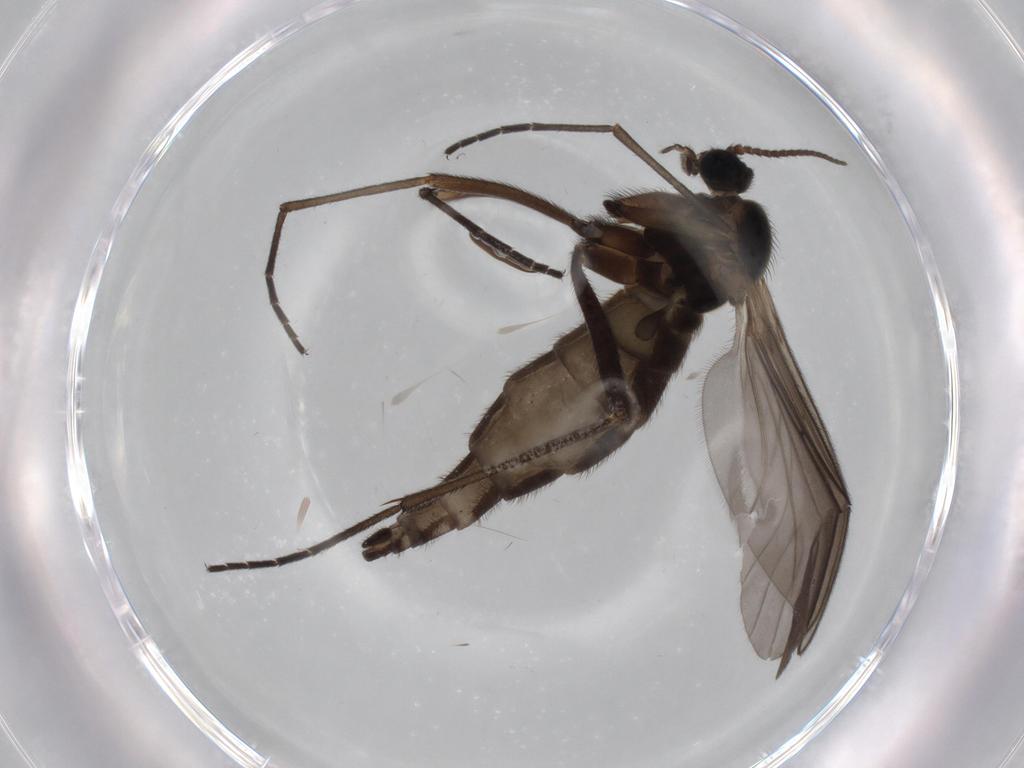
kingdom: Animalia
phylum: Arthropoda
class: Insecta
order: Diptera
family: Sciaridae
